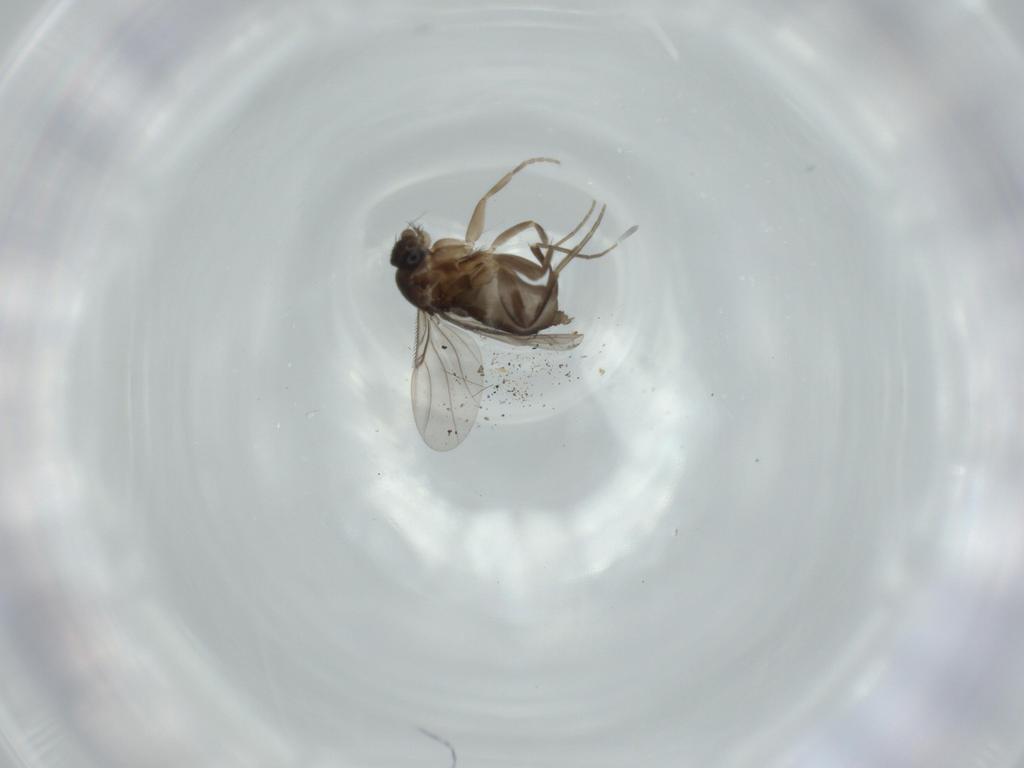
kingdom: Animalia
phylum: Arthropoda
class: Insecta
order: Diptera
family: Phoridae
